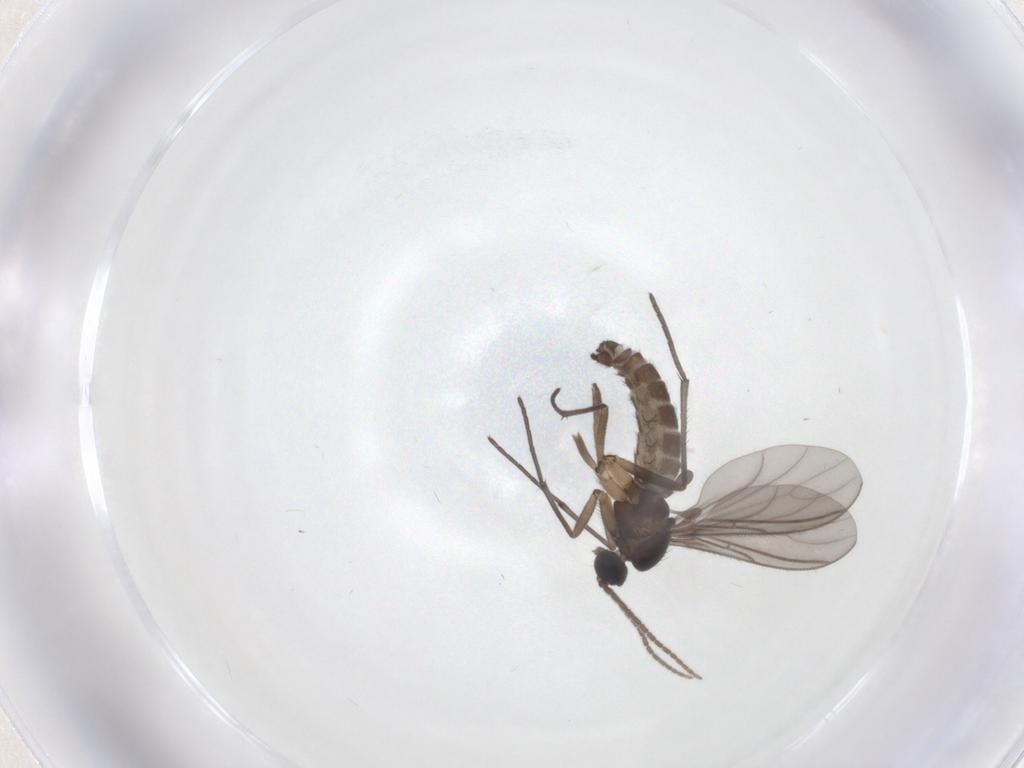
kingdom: Animalia
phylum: Arthropoda
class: Insecta
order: Diptera
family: Sciaridae
